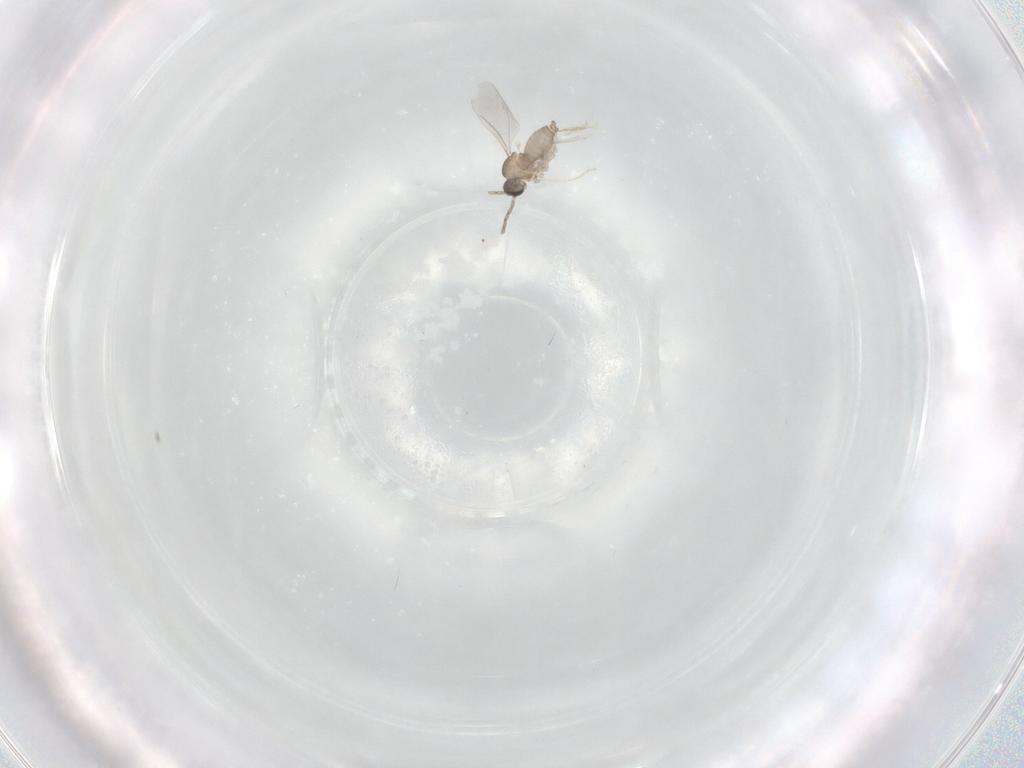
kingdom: Animalia
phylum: Arthropoda
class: Insecta
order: Diptera
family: Cecidomyiidae
